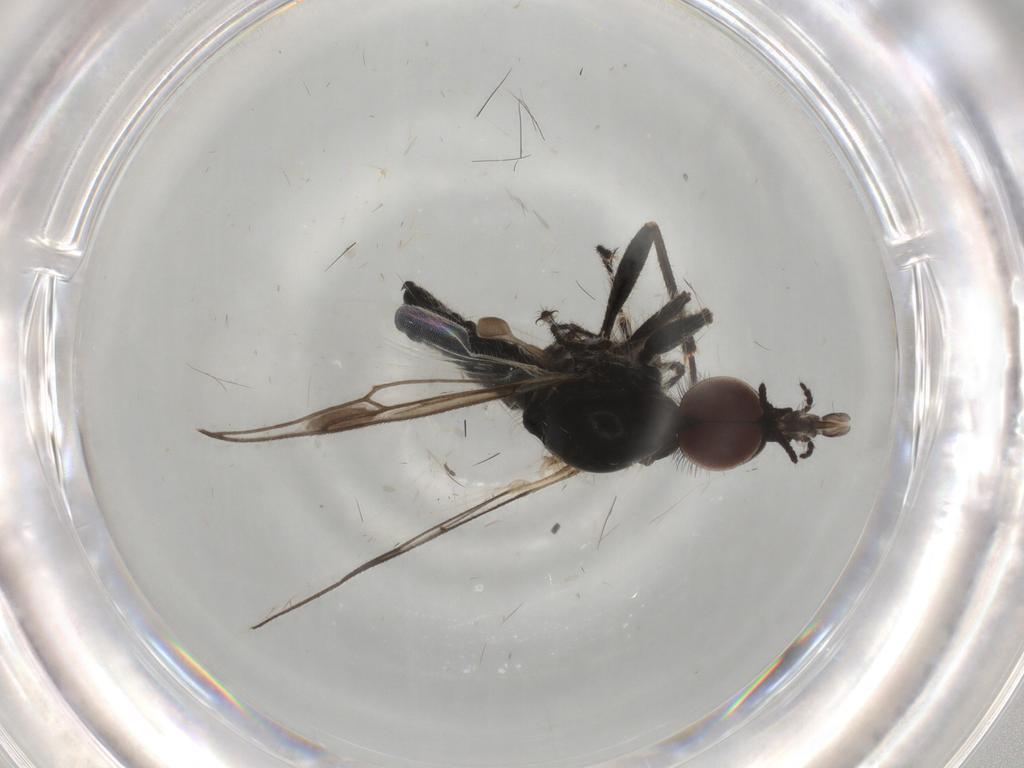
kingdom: Animalia
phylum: Arthropoda
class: Insecta
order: Diptera
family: Bibionidae
